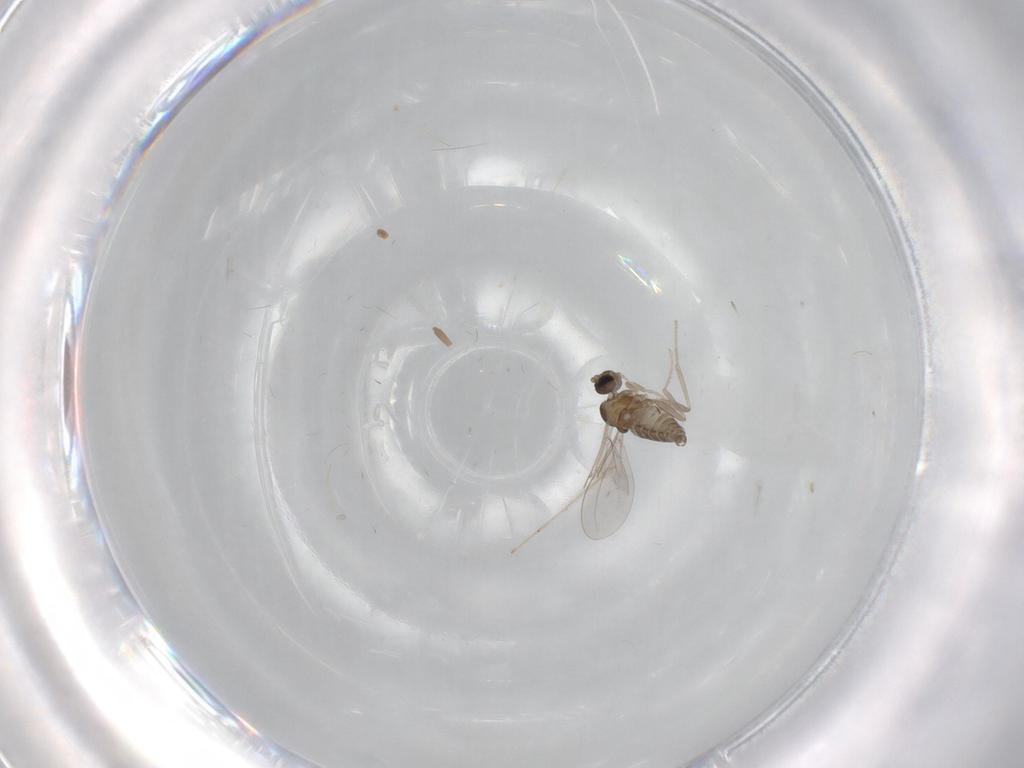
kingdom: Animalia
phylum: Arthropoda
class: Insecta
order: Diptera
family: Cecidomyiidae
